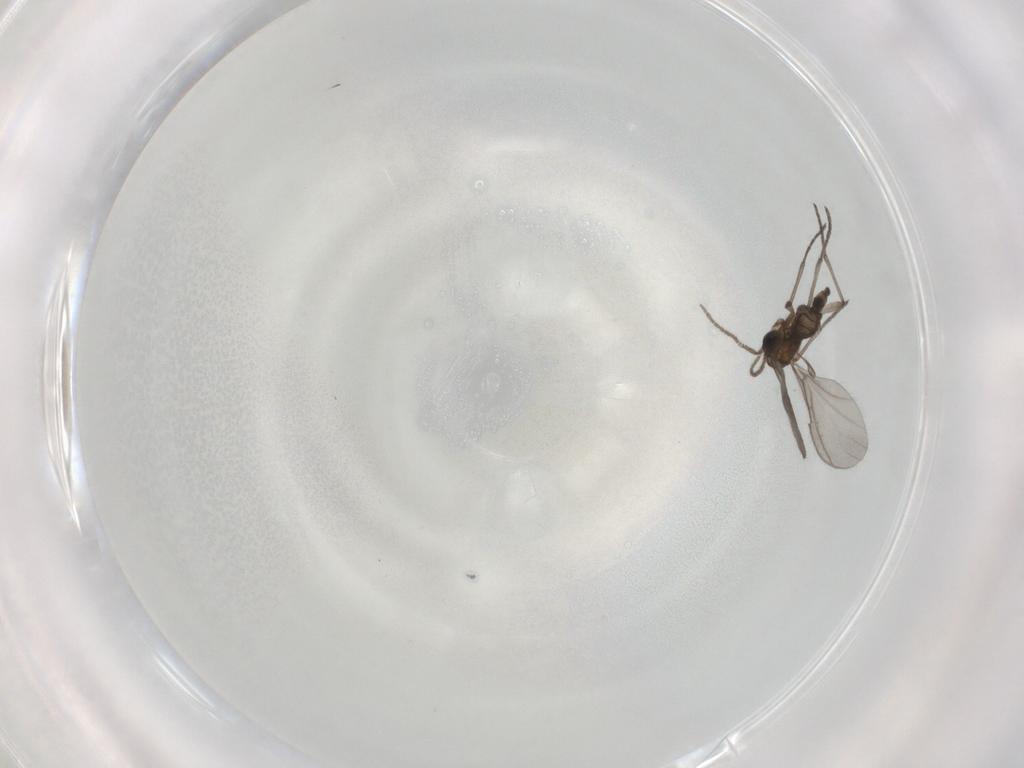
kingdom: Animalia
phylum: Arthropoda
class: Insecta
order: Diptera
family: Sciaridae
